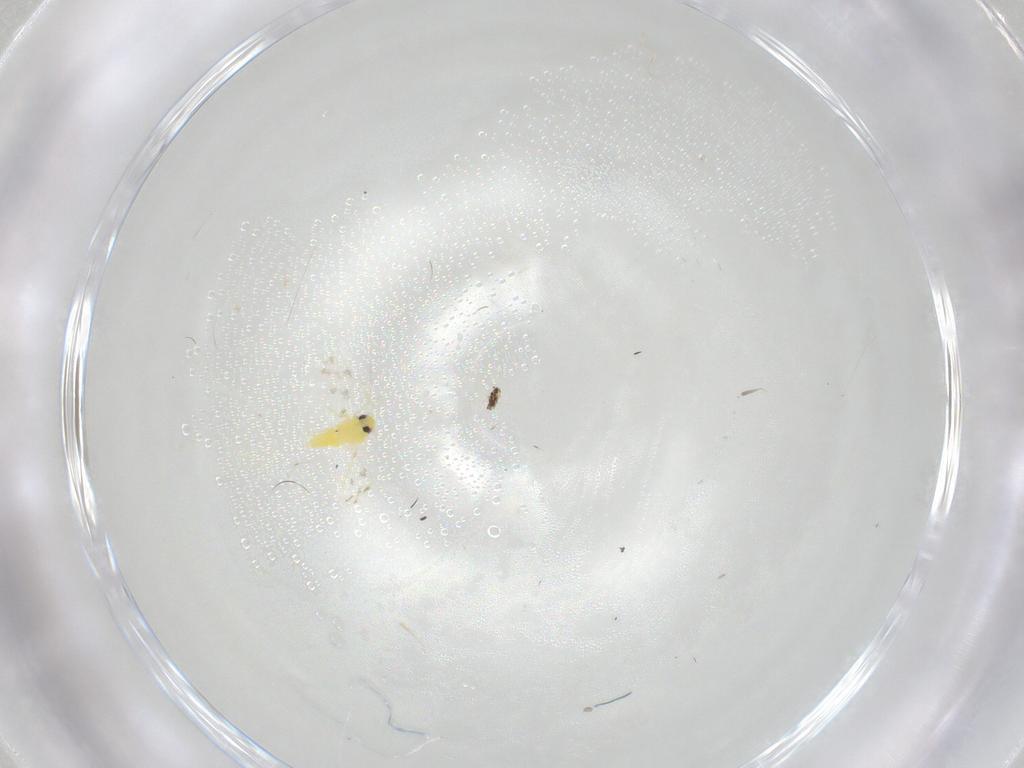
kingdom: Animalia
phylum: Arthropoda
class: Insecta
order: Hemiptera
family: Aleyrodidae
